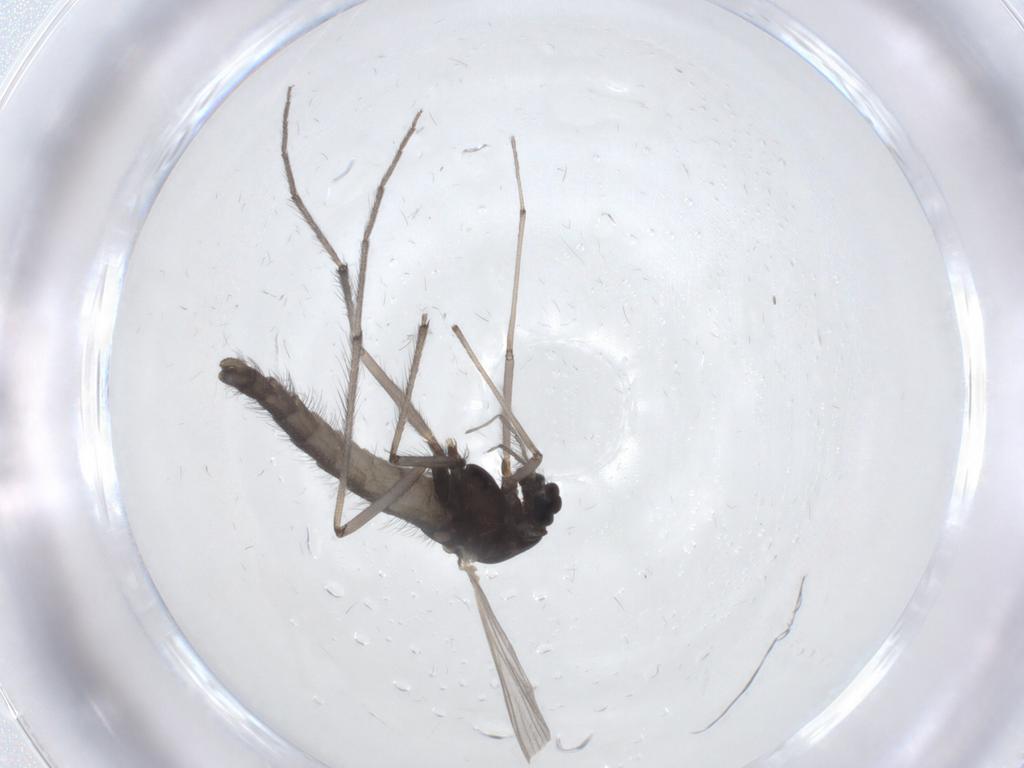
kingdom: Animalia
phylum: Arthropoda
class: Insecta
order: Diptera
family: Chironomidae
